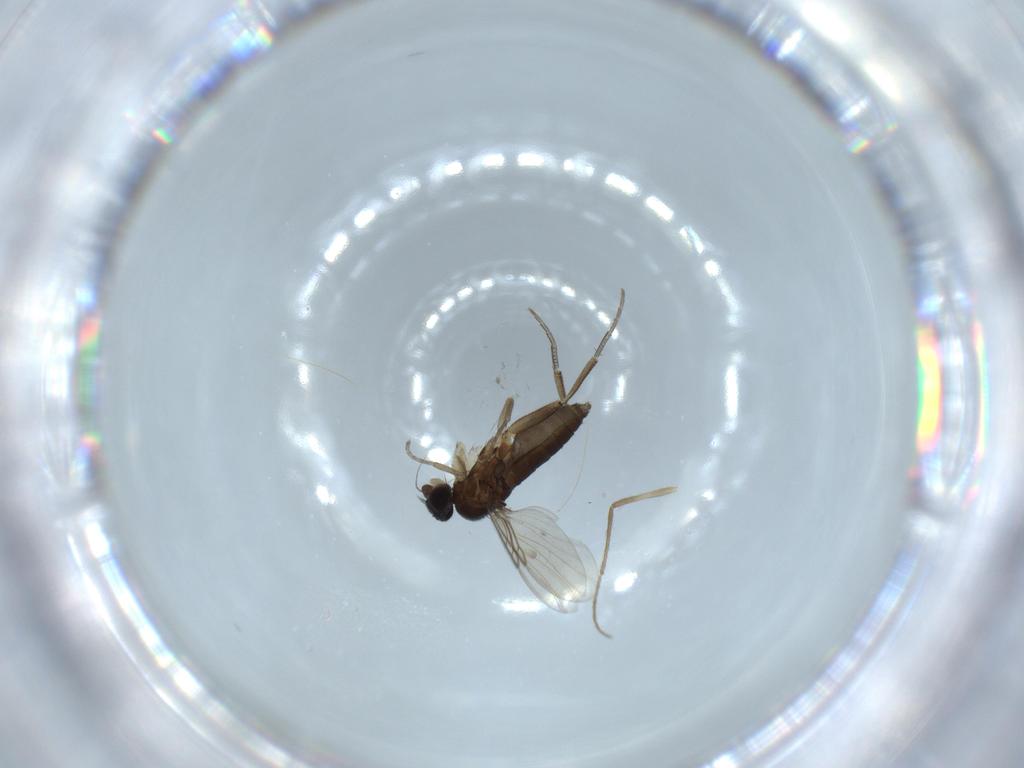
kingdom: Animalia
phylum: Arthropoda
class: Insecta
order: Diptera
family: Phoridae
